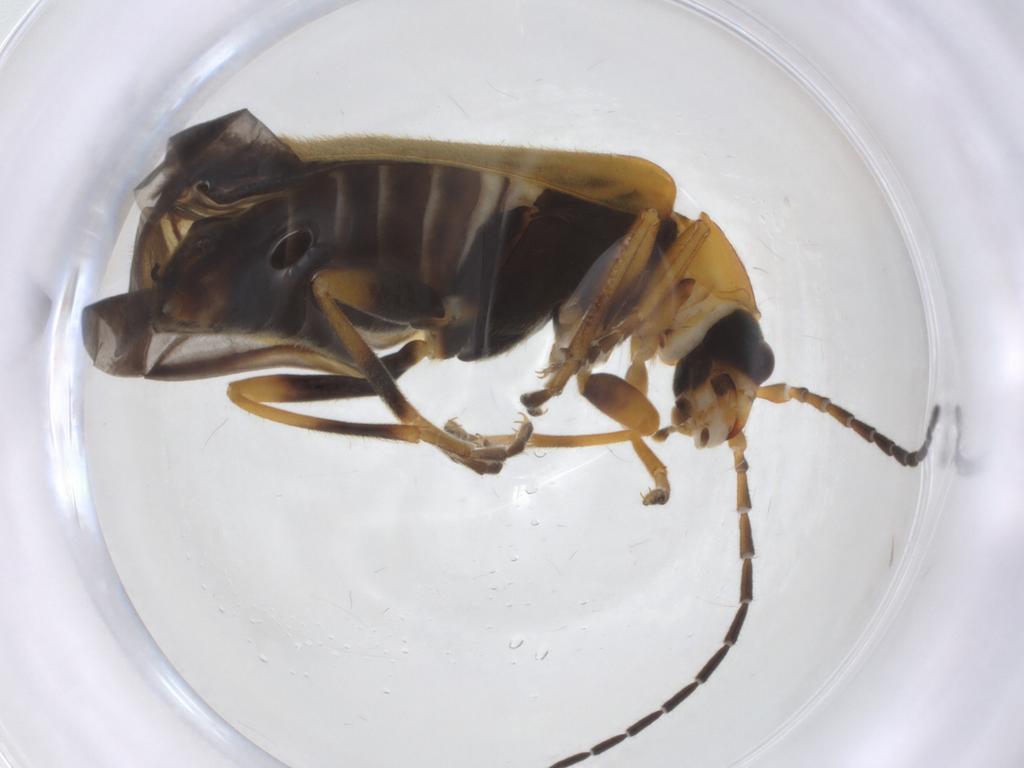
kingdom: Animalia
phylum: Arthropoda
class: Insecta
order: Coleoptera
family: Cantharidae
